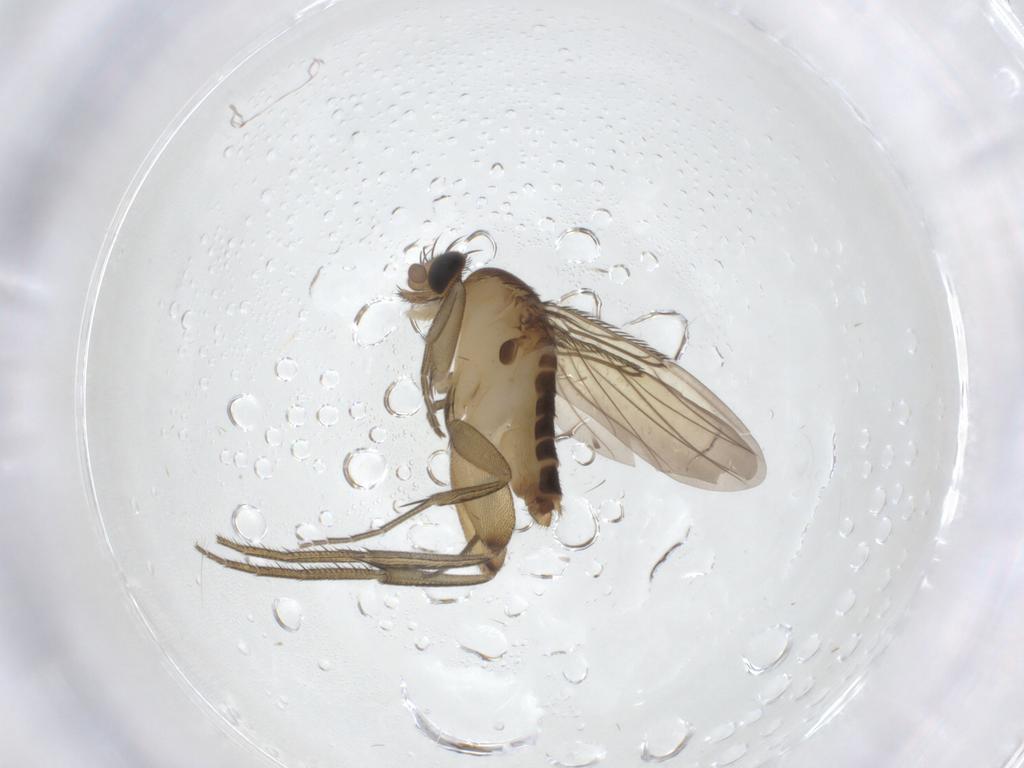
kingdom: Animalia
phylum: Arthropoda
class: Insecta
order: Diptera
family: Phoridae
